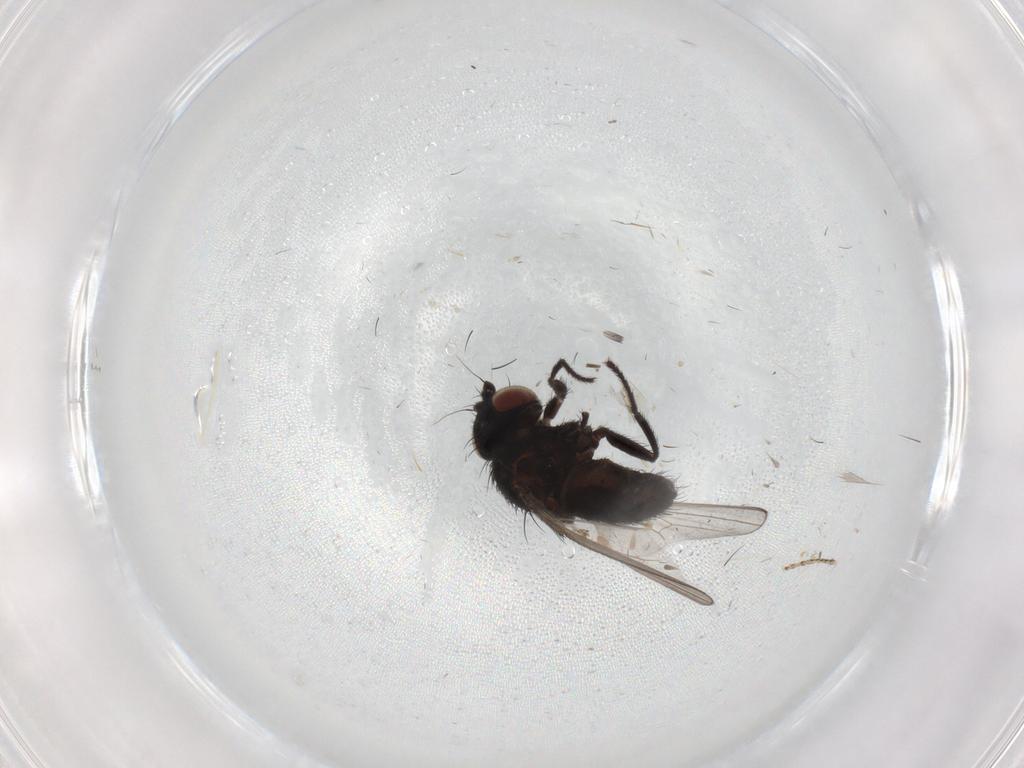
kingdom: Animalia
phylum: Arthropoda
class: Insecta
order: Diptera
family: Milichiidae
